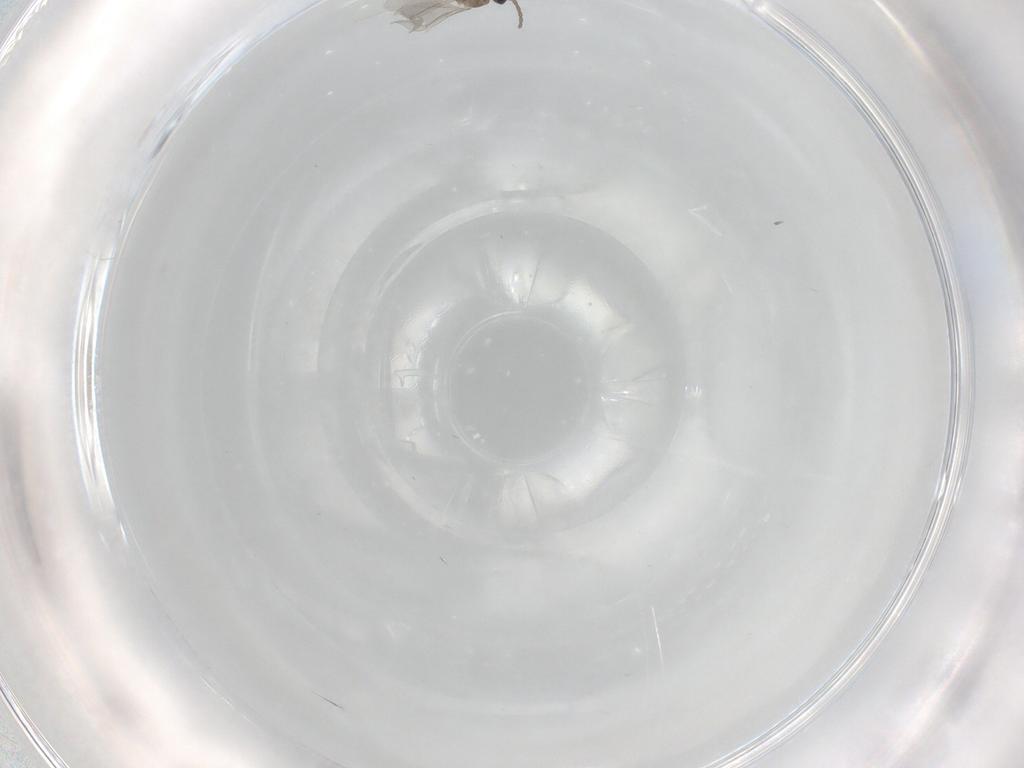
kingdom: Animalia
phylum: Arthropoda
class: Insecta
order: Diptera
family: Cecidomyiidae
